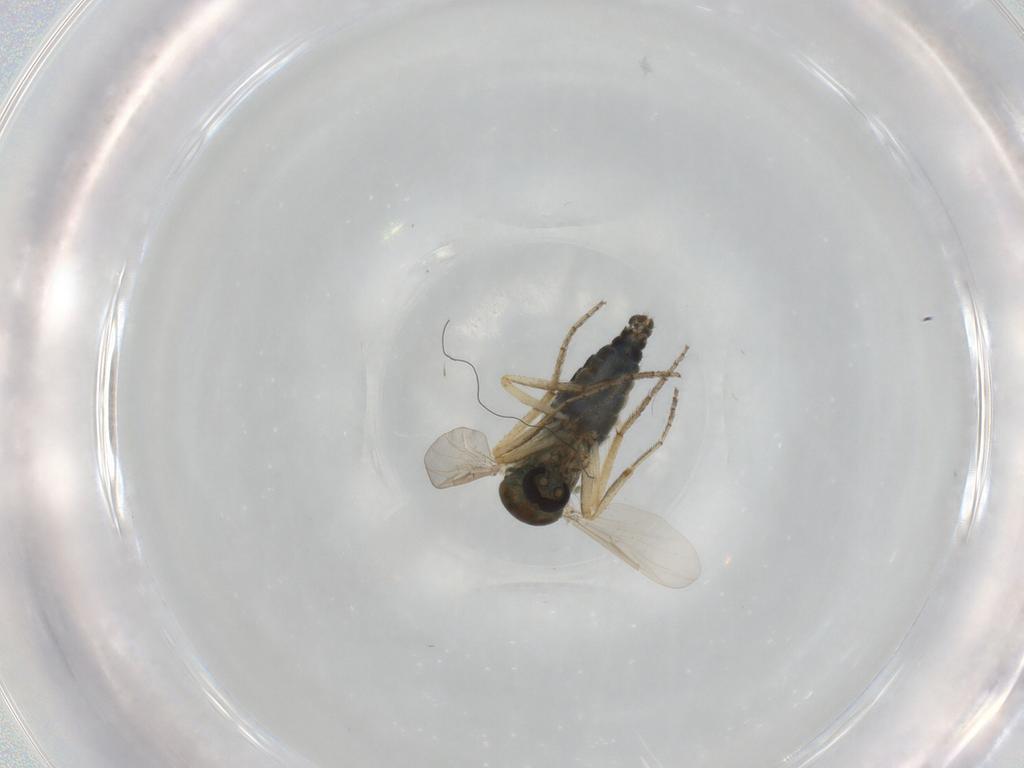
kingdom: Animalia
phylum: Arthropoda
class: Insecta
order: Diptera
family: Ceratopogonidae
